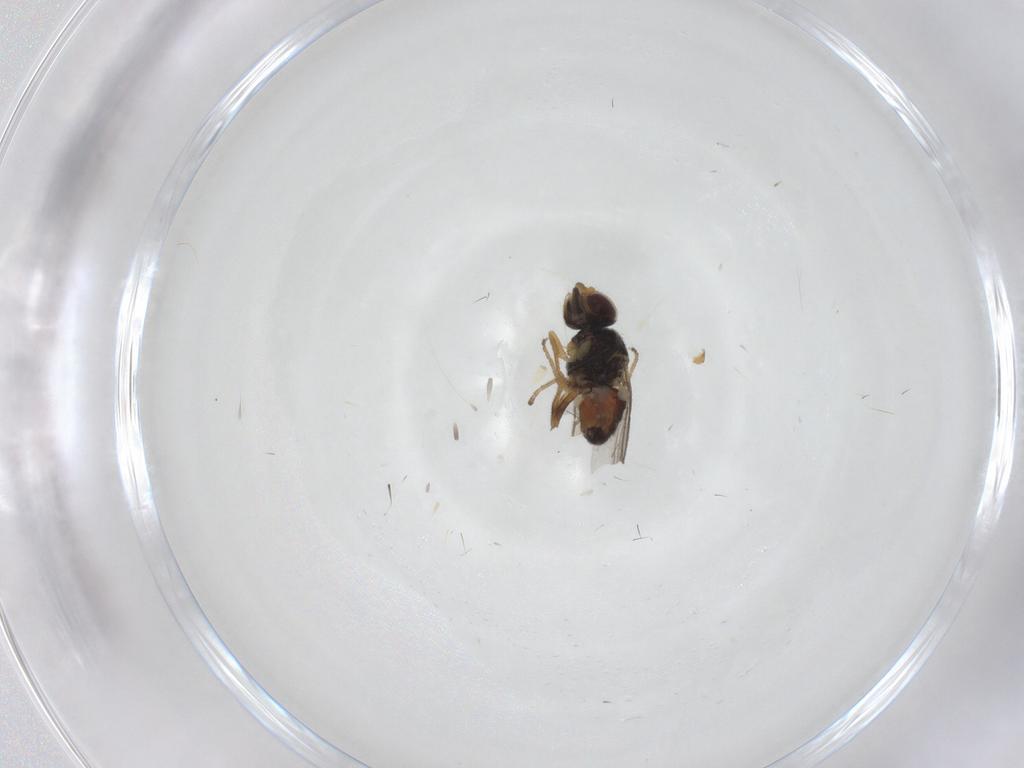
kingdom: Animalia
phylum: Arthropoda
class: Insecta
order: Diptera
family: Chloropidae
